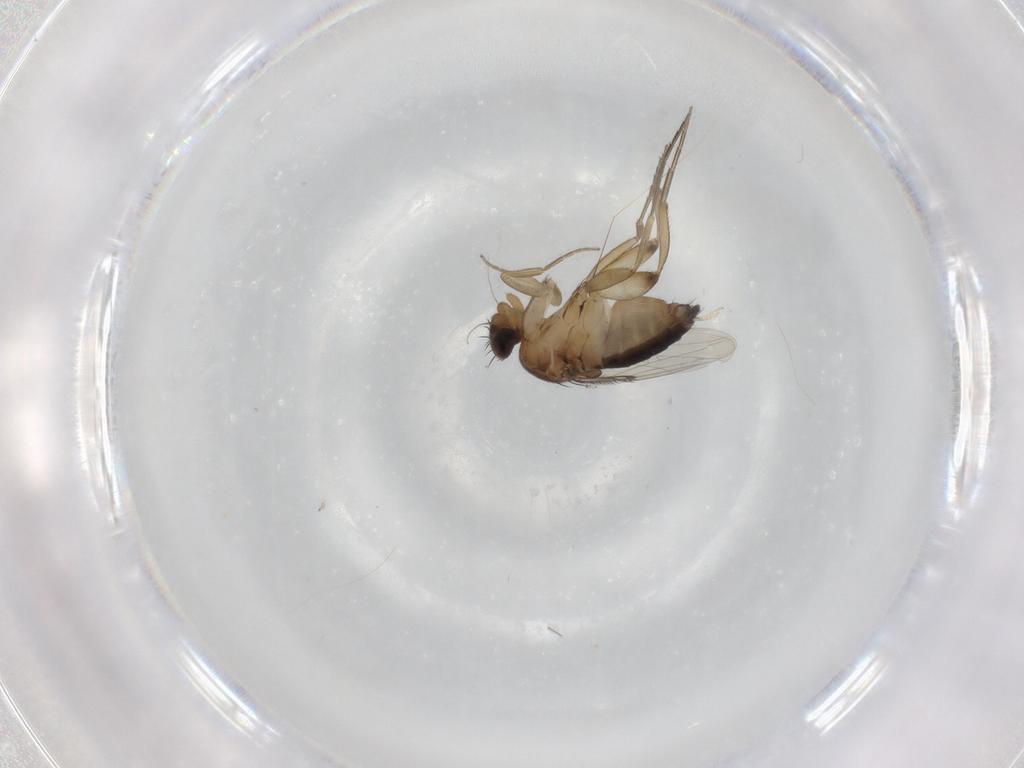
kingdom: Animalia
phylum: Arthropoda
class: Insecta
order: Diptera
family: Phoridae
